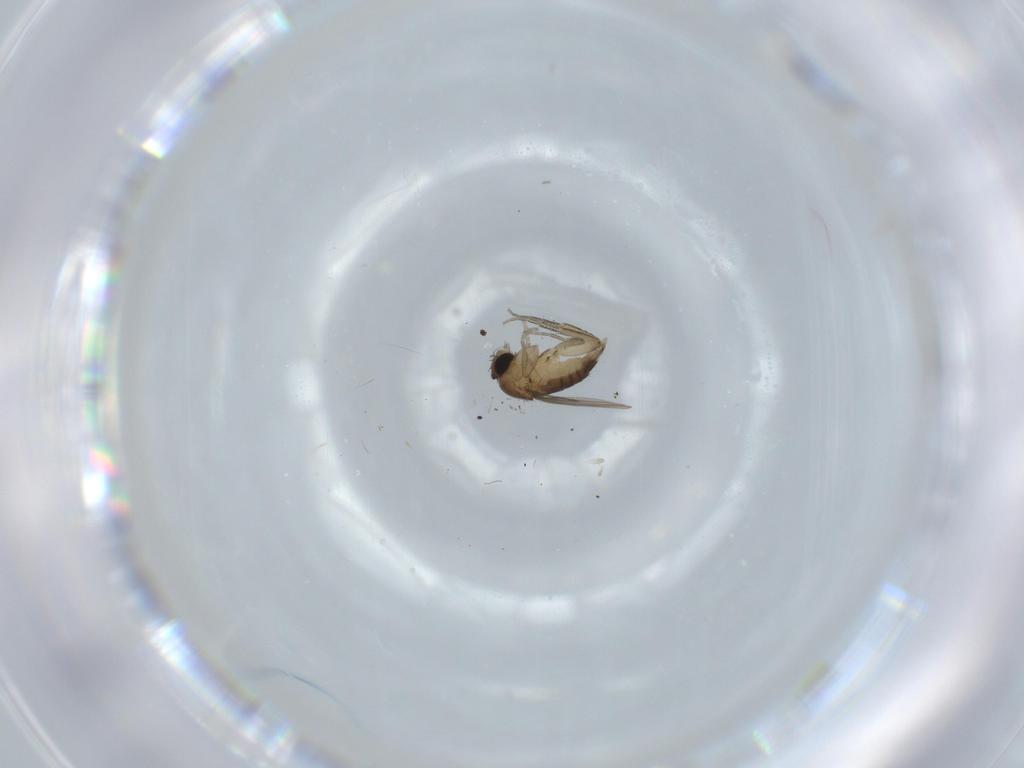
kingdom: Animalia
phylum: Arthropoda
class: Insecta
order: Diptera
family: Phoridae
